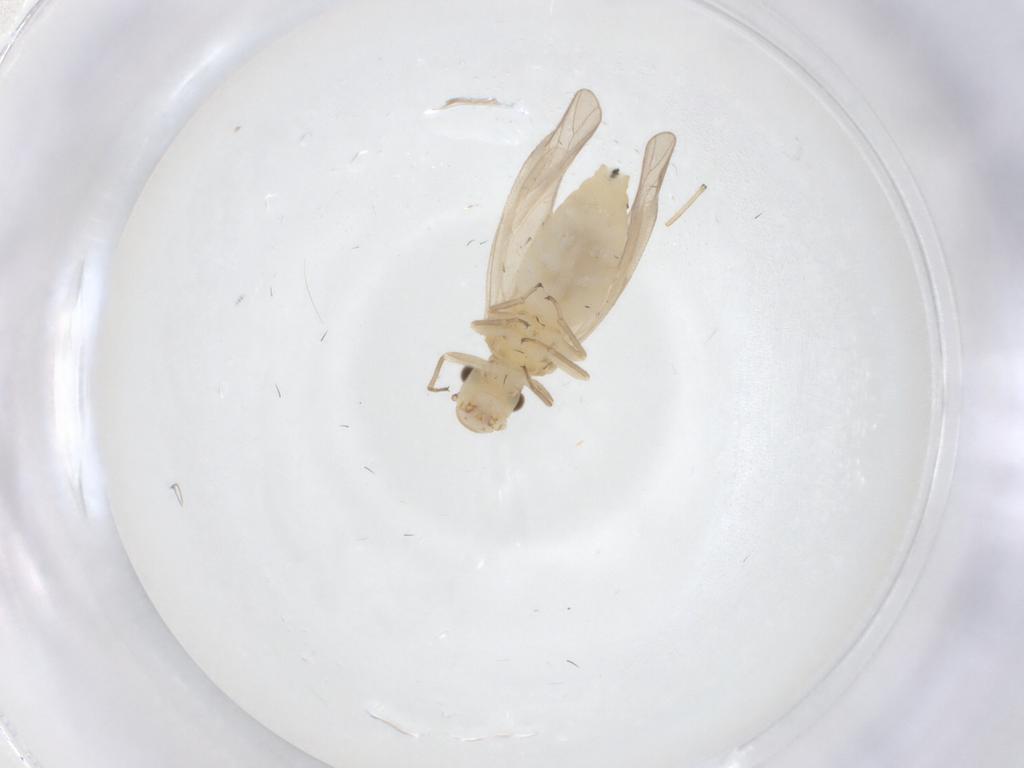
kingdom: Animalia
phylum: Arthropoda
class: Insecta
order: Psocodea
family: Caeciliusidae
